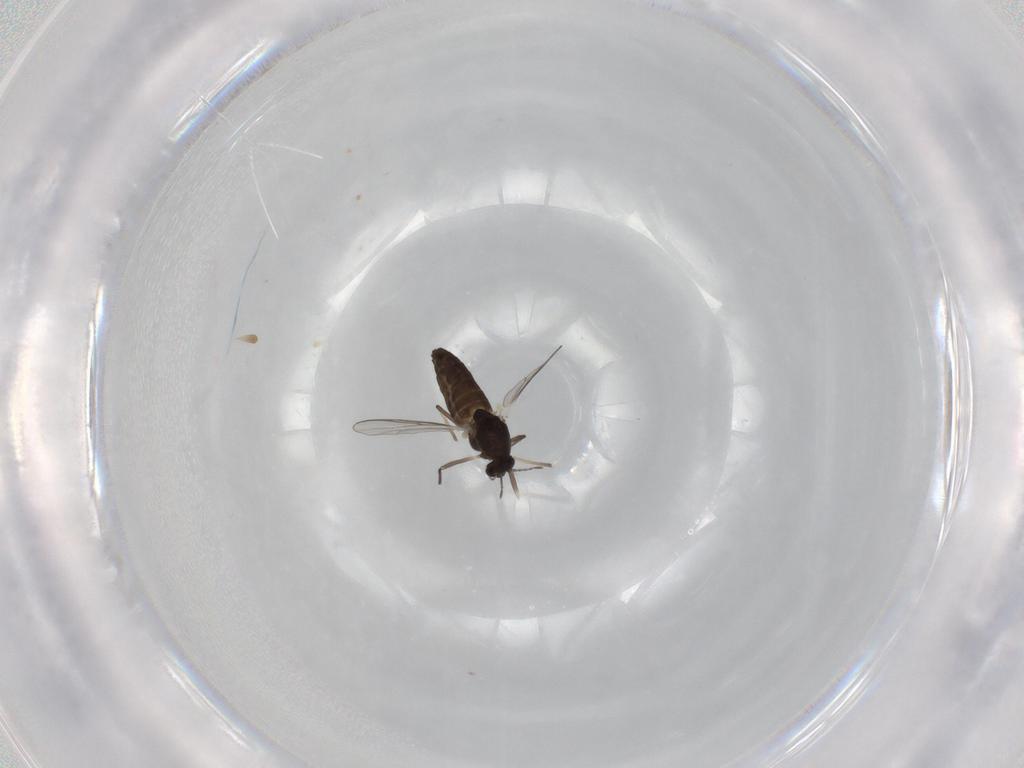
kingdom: Animalia
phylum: Arthropoda
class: Insecta
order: Diptera
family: Chironomidae
